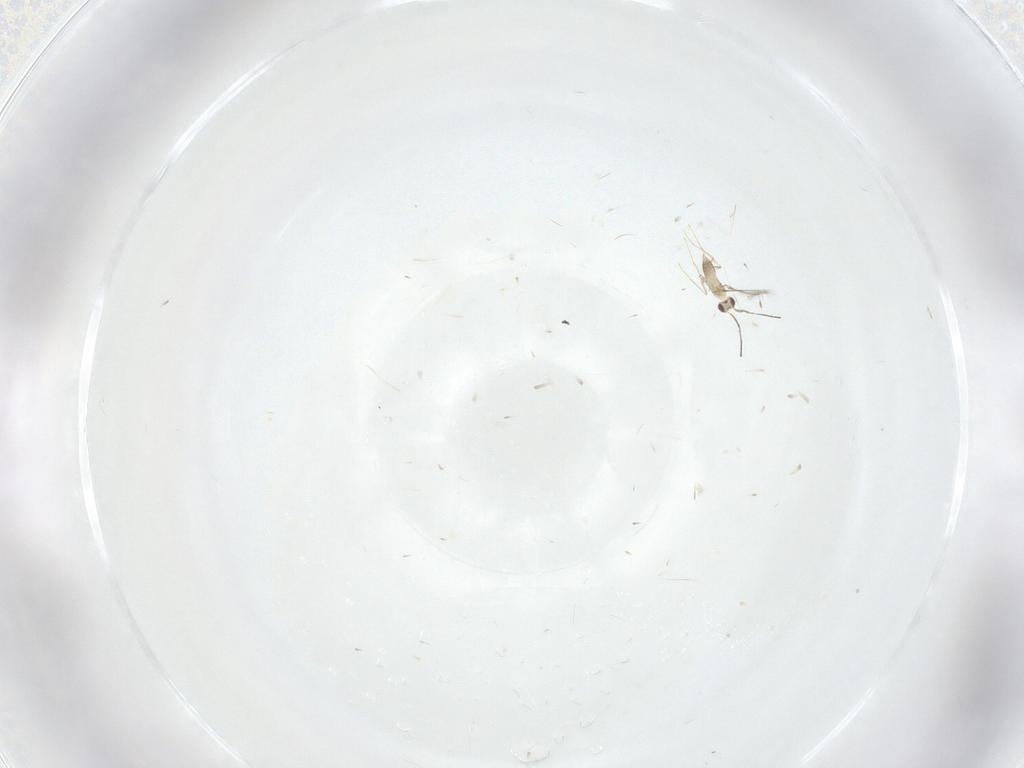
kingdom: Animalia
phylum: Arthropoda
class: Insecta
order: Hymenoptera
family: Mymaridae
